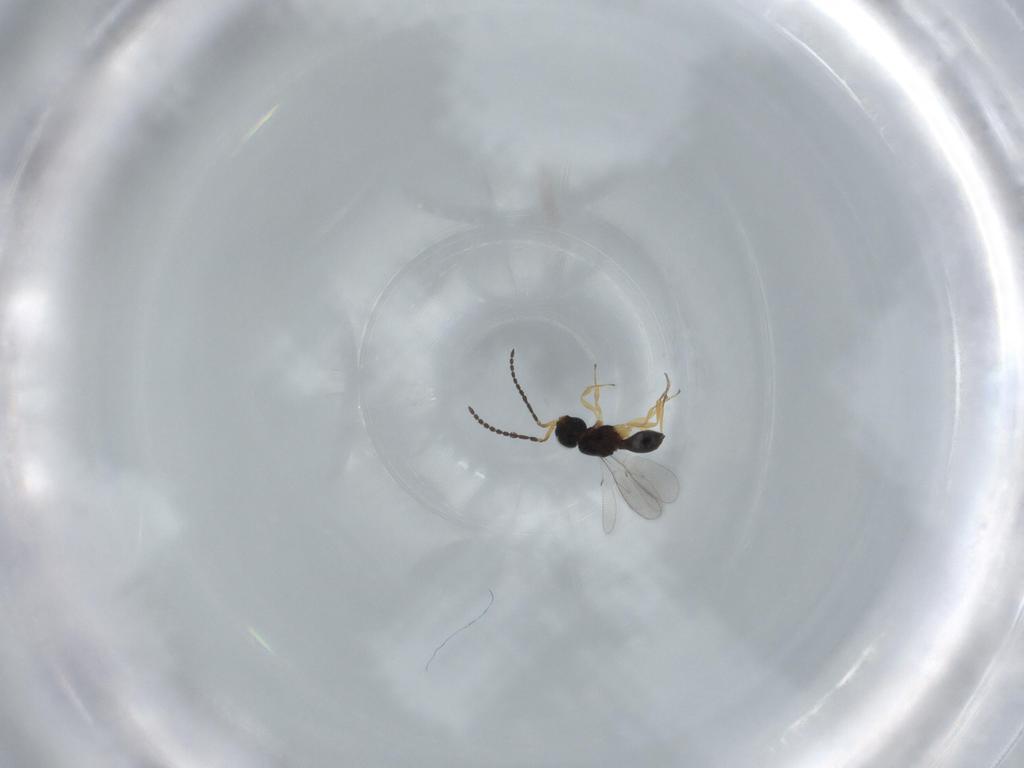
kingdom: Animalia
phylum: Arthropoda
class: Insecta
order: Hymenoptera
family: Scelionidae
